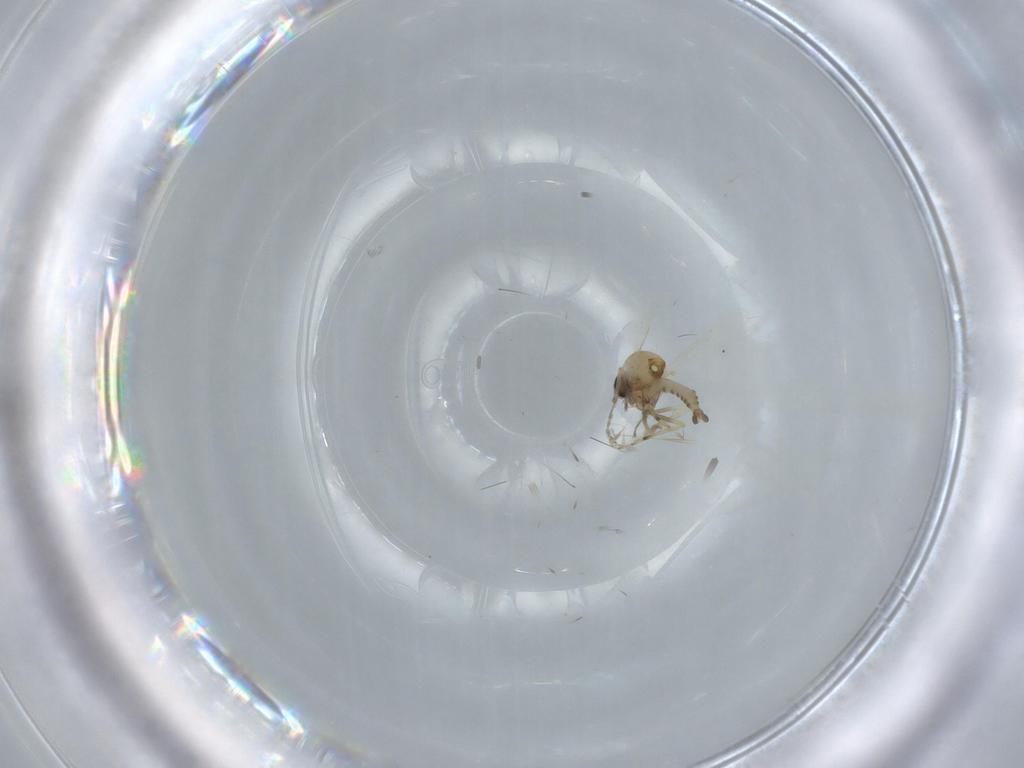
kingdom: Animalia
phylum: Arthropoda
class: Insecta
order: Diptera
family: Ceratopogonidae
